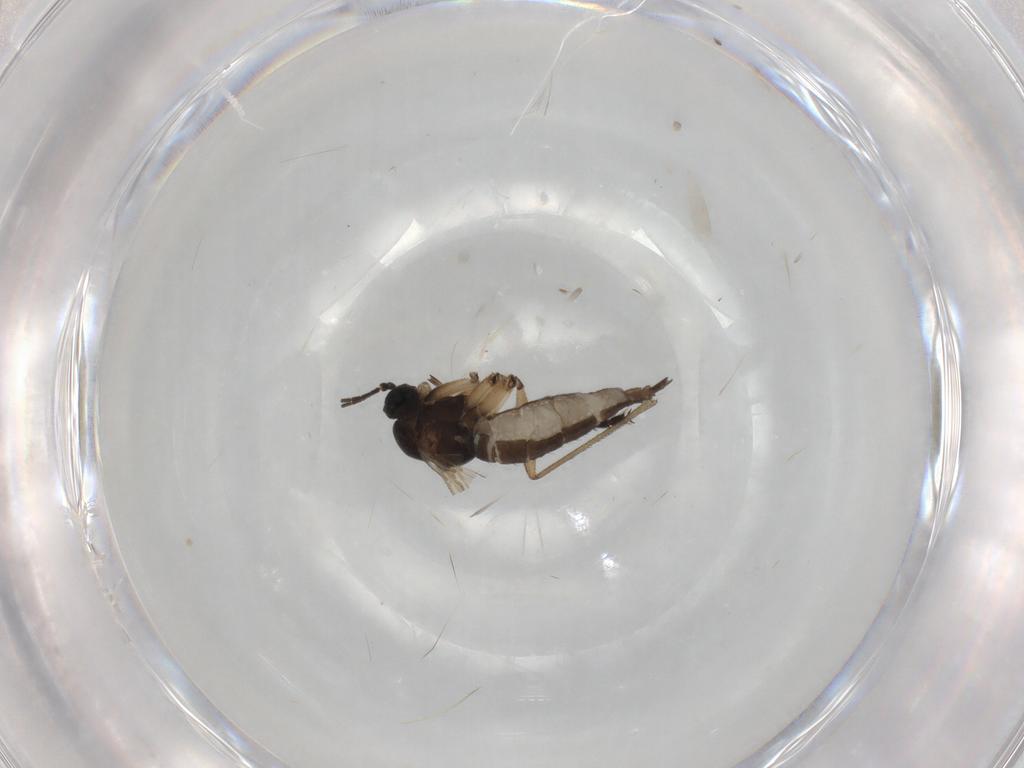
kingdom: Animalia
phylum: Arthropoda
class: Insecta
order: Diptera
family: Sciaridae
